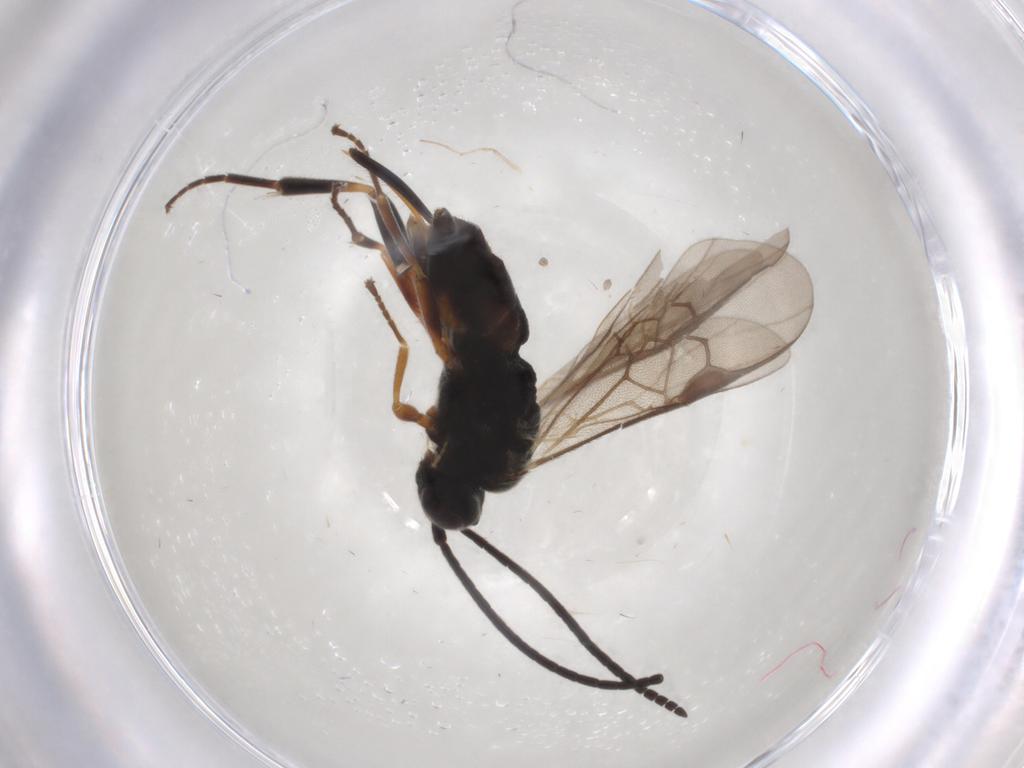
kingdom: Animalia
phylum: Arthropoda
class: Insecta
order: Hymenoptera
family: Braconidae
